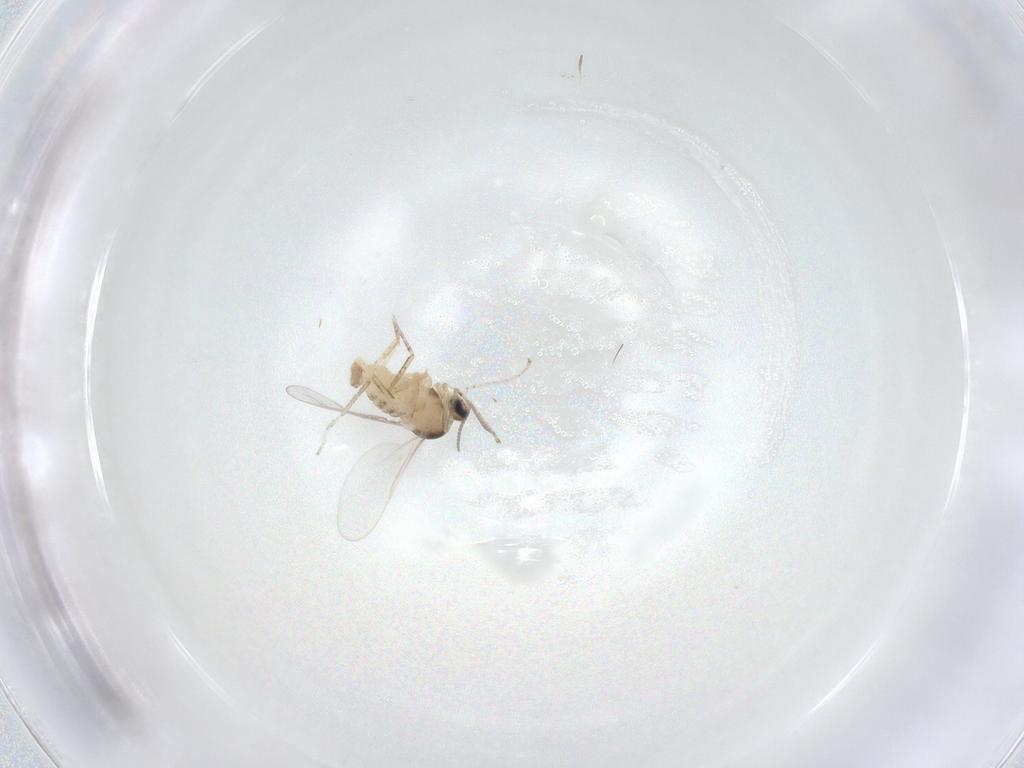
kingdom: Animalia
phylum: Arthropoda
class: Insecta
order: Diptera
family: Cecidomyiidae
